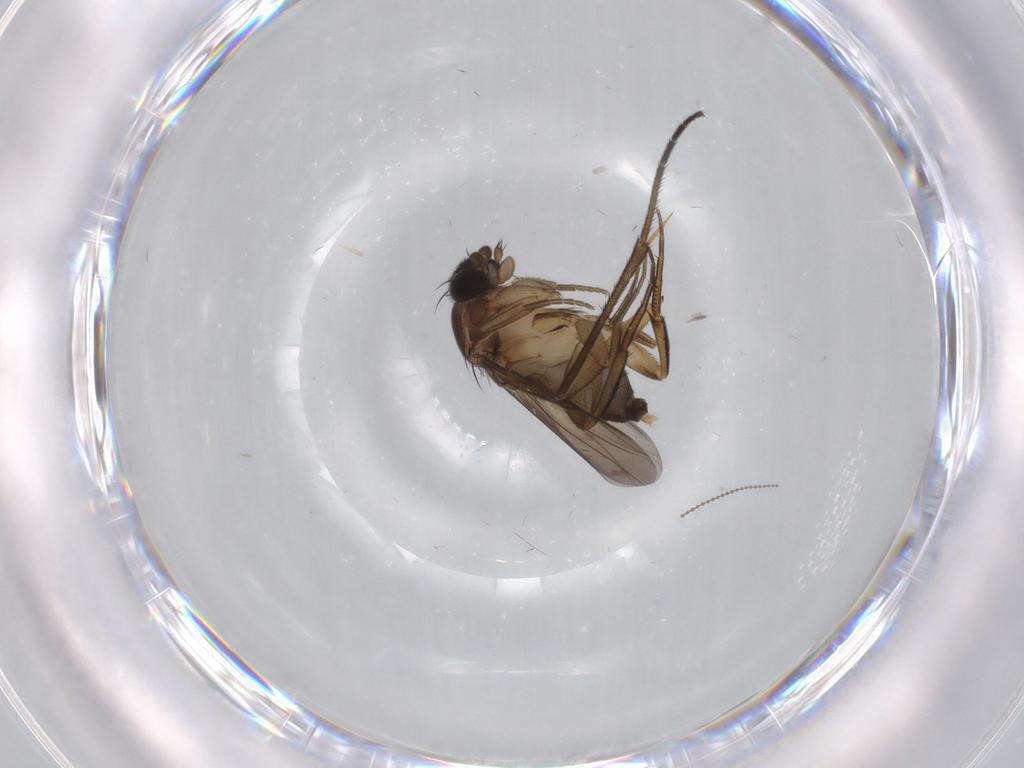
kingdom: Animalia
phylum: Arthropoda
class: Insecta
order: Diptera
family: Phoridae
